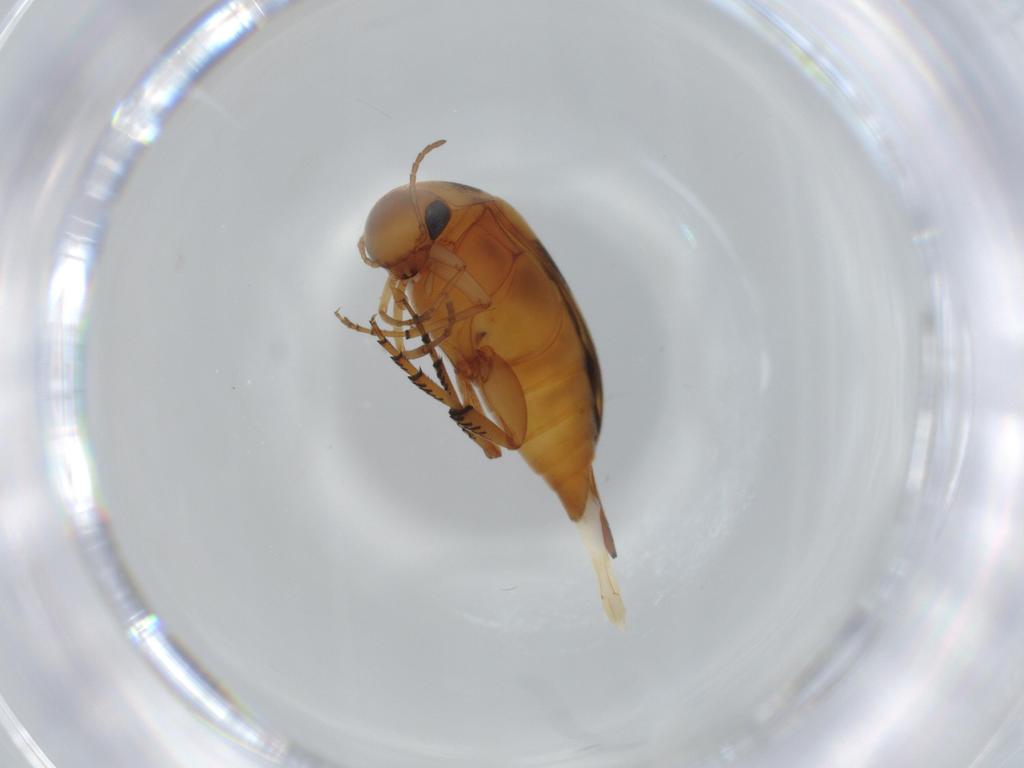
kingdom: Animalia
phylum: Arthropoda
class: Insecta
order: Coleoptera
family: Mordellidae
